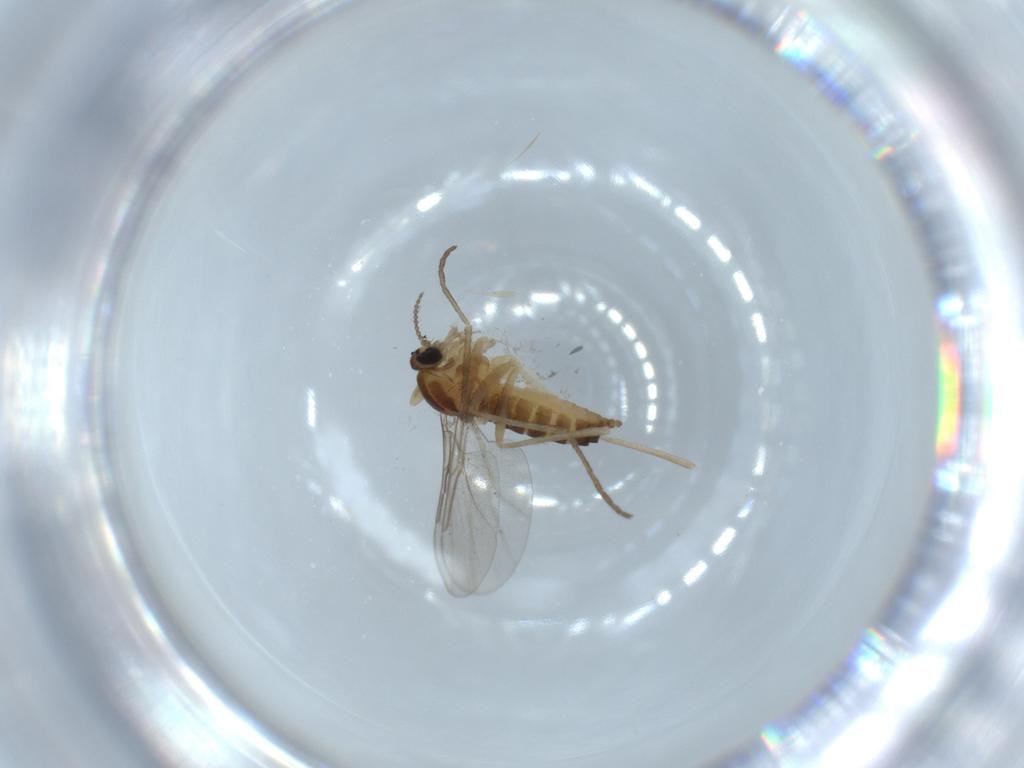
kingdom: Animalia
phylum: Arthropoda
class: Insecta
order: Diptera
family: Cecidomyiidae
